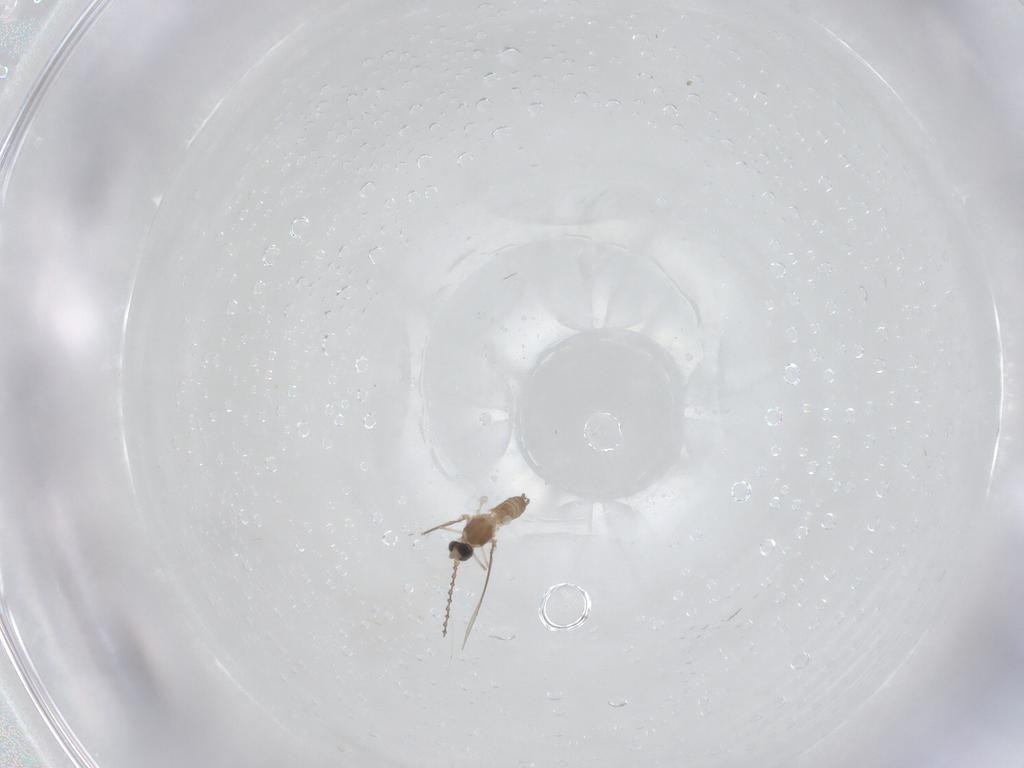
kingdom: Animalia
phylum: Arthropoda
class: Insecta
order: Diptera
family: Cecidomyiidae
